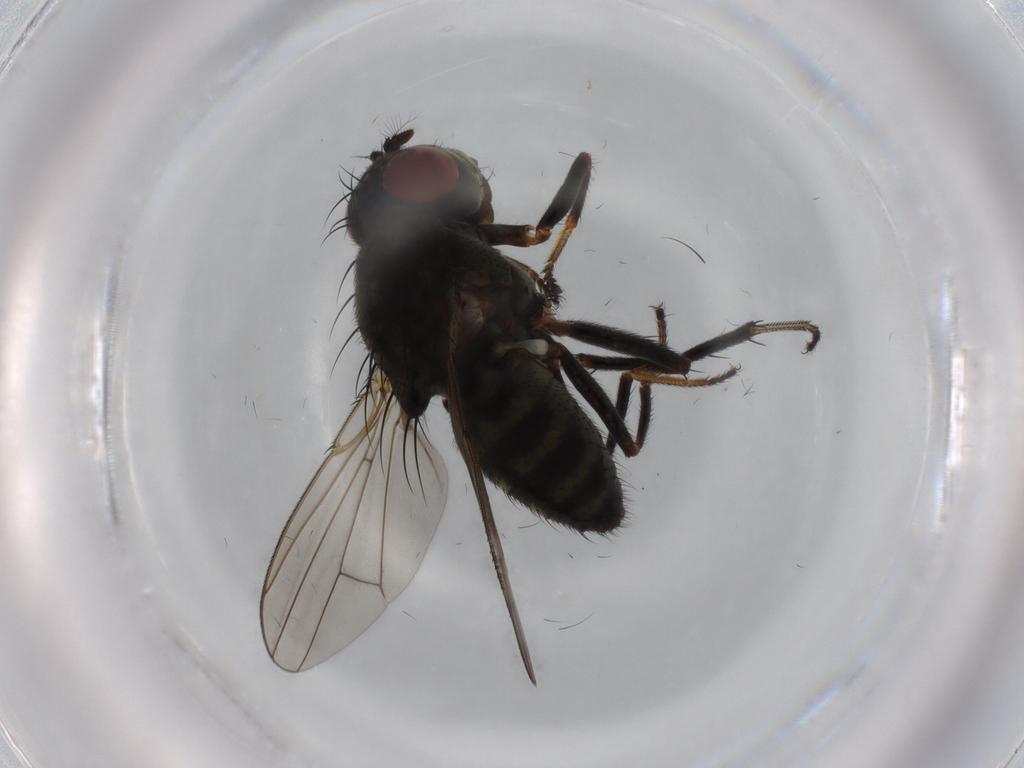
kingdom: Animalia
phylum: Arthropoda
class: Insecta
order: Diptera
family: Ephydridae
